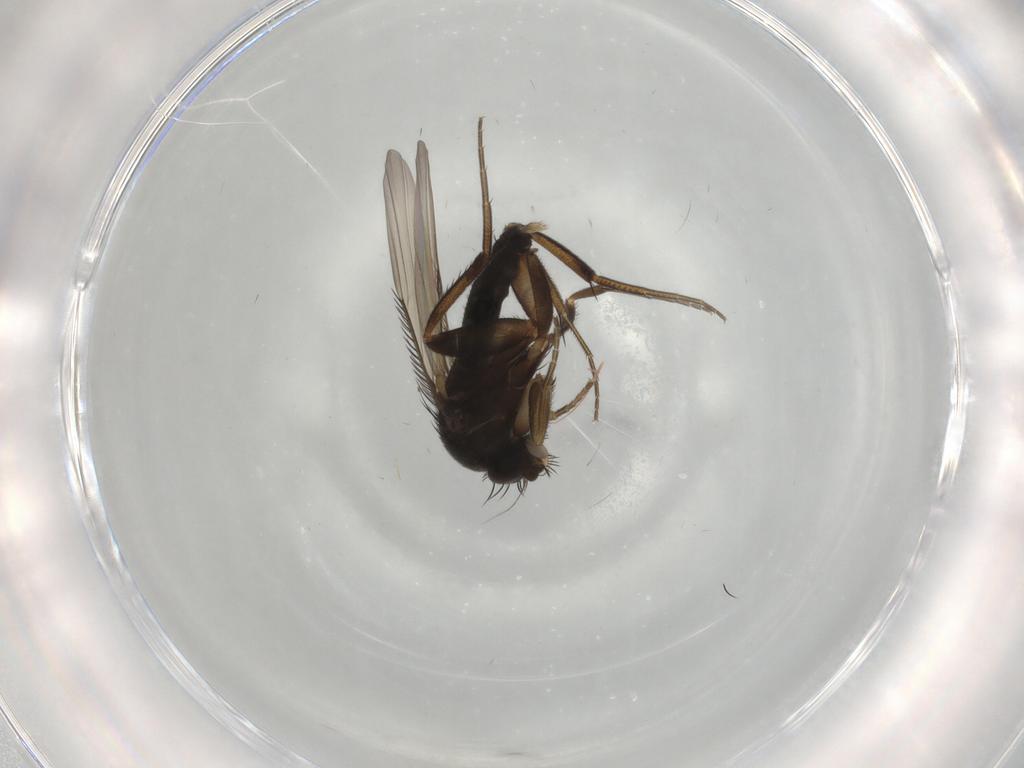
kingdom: Animalia
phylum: Arthropoda
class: Insecta
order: Diptera
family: Phoridae
